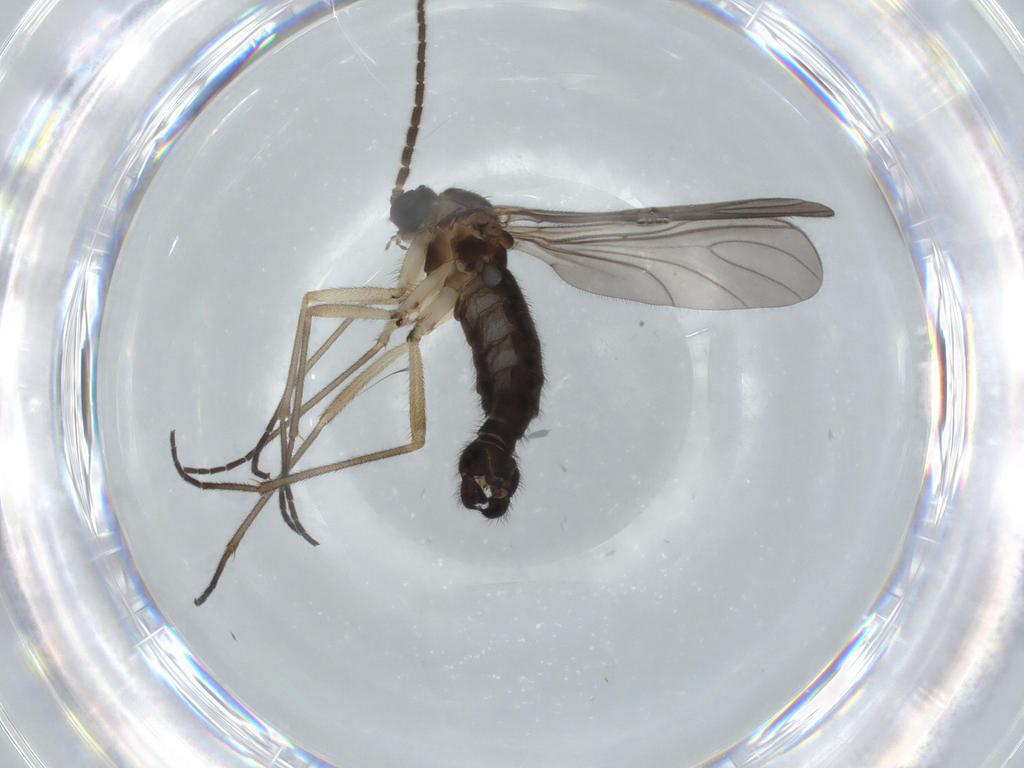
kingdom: Animalia
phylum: Arthropoda
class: Insecta
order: Diptera
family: Sciaridae
